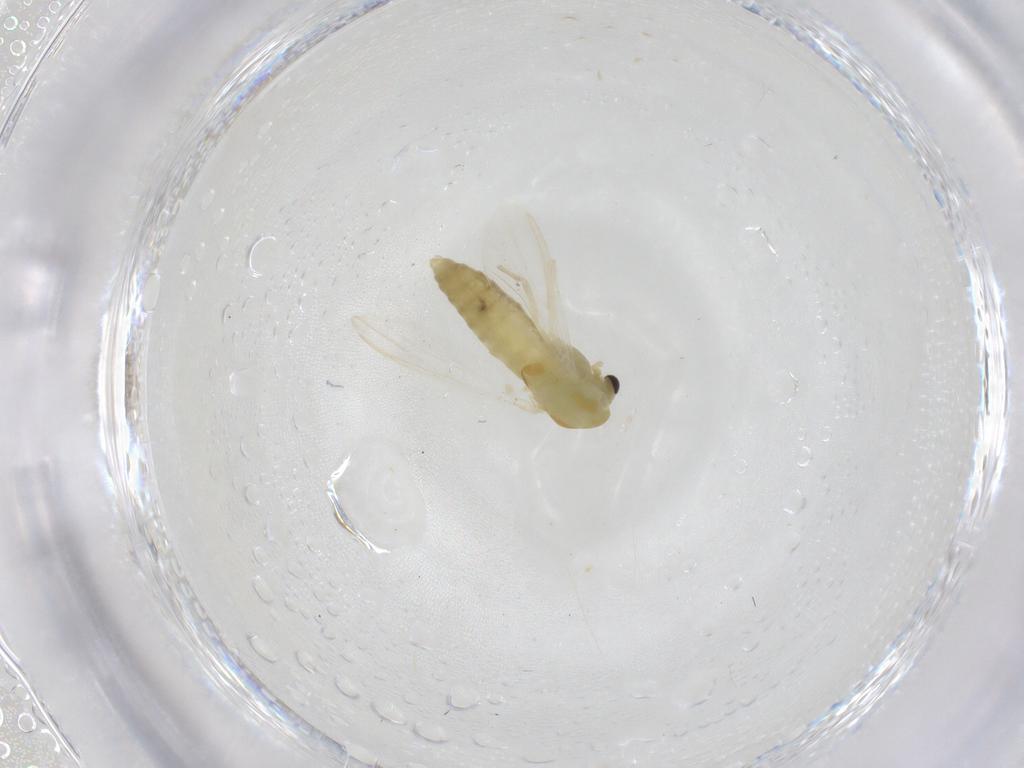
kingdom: Animalia
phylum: Arthropoda
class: Insecta
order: Diptera
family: Chironomidae
